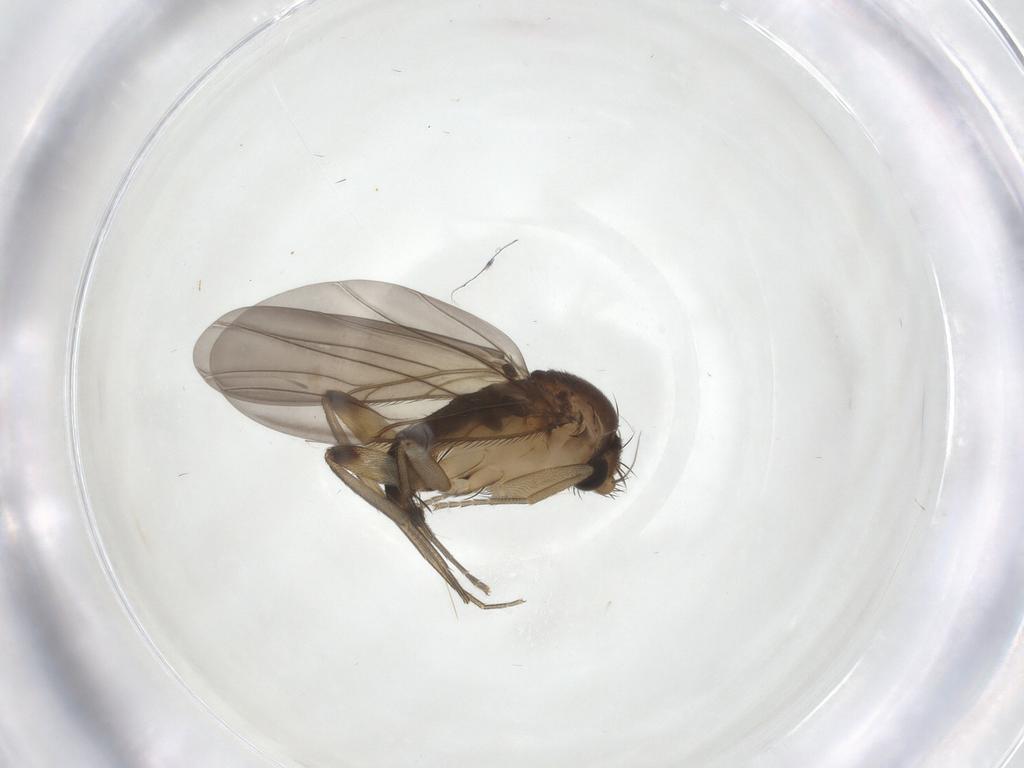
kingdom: Animalia
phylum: Arthropoda
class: Insecta
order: Diptera
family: Phoridae
